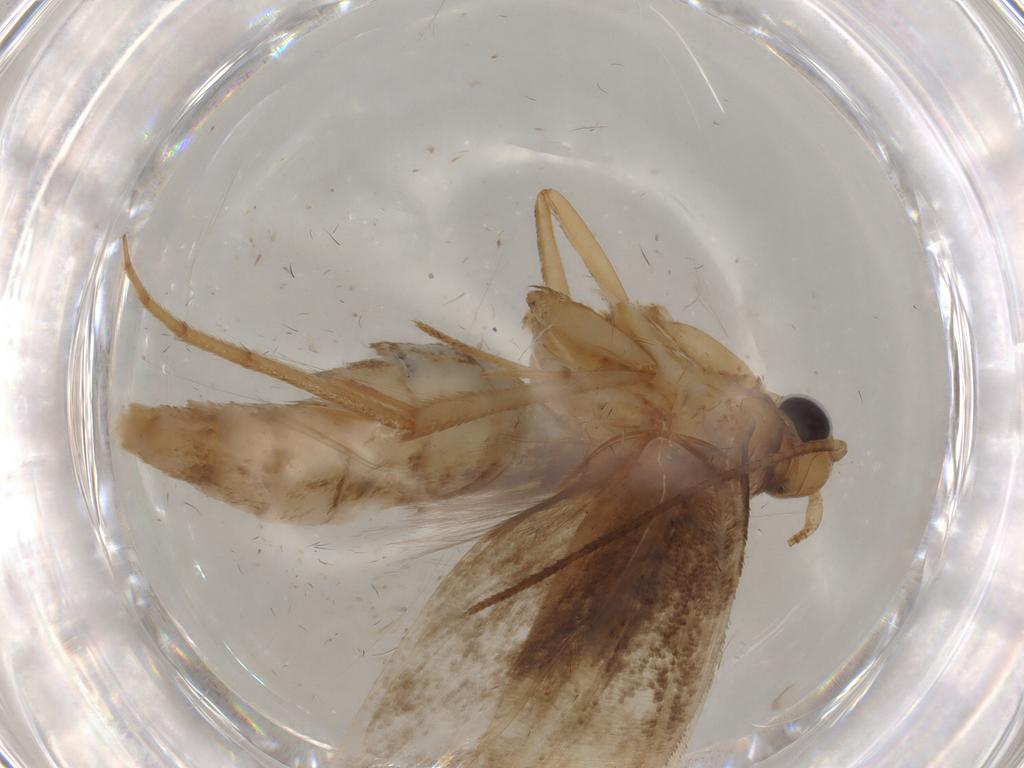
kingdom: Animalia
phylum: Arthropoda
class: Insecta
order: Lepidoptera
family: Yponomeutidae
